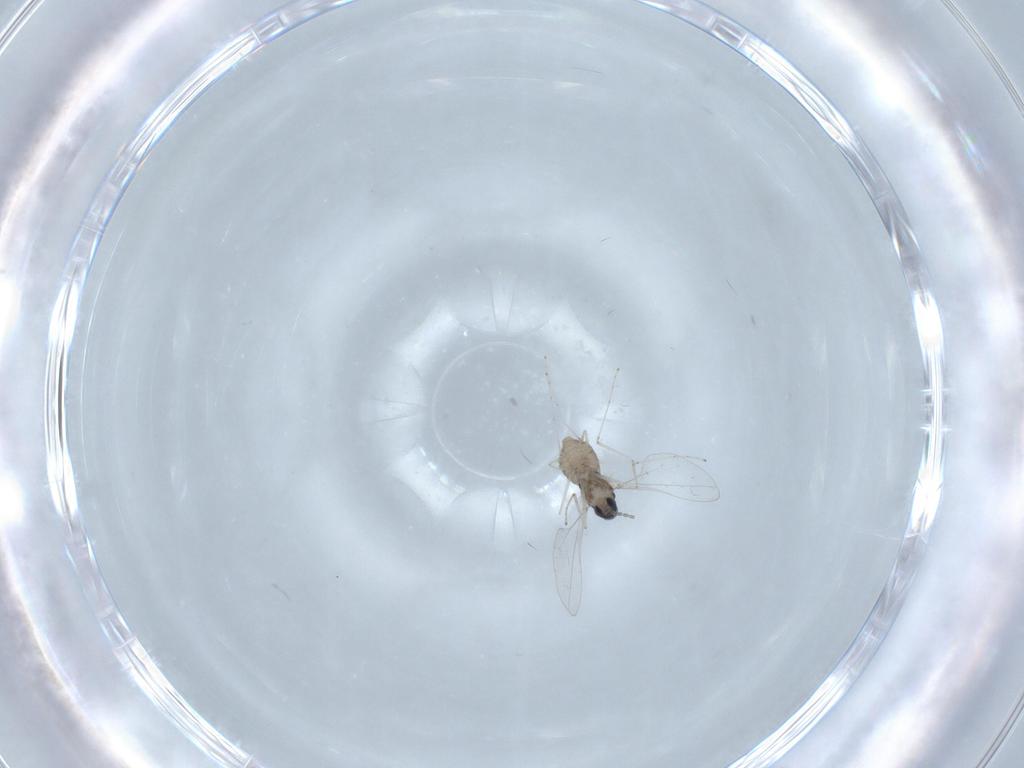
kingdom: Animalia
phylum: Arthropoda
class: Insecta
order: Diptera
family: Cecidomyiidae
